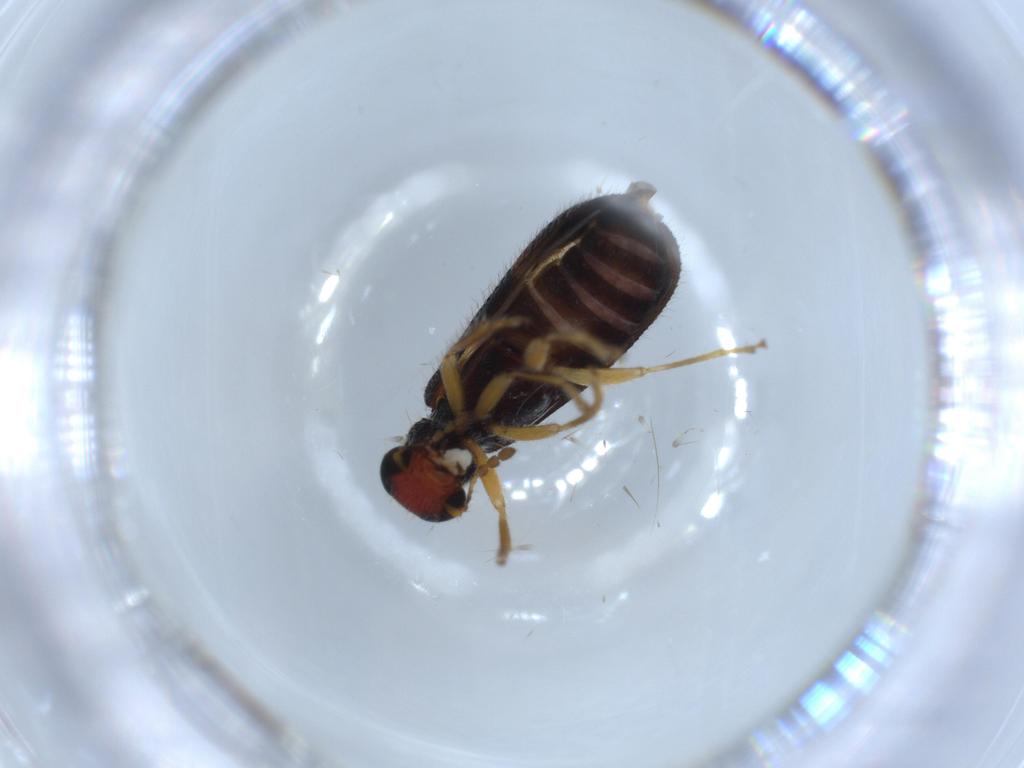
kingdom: Animalia
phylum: Arthropoda
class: Insecta
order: Coleoptera
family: Cleridae
